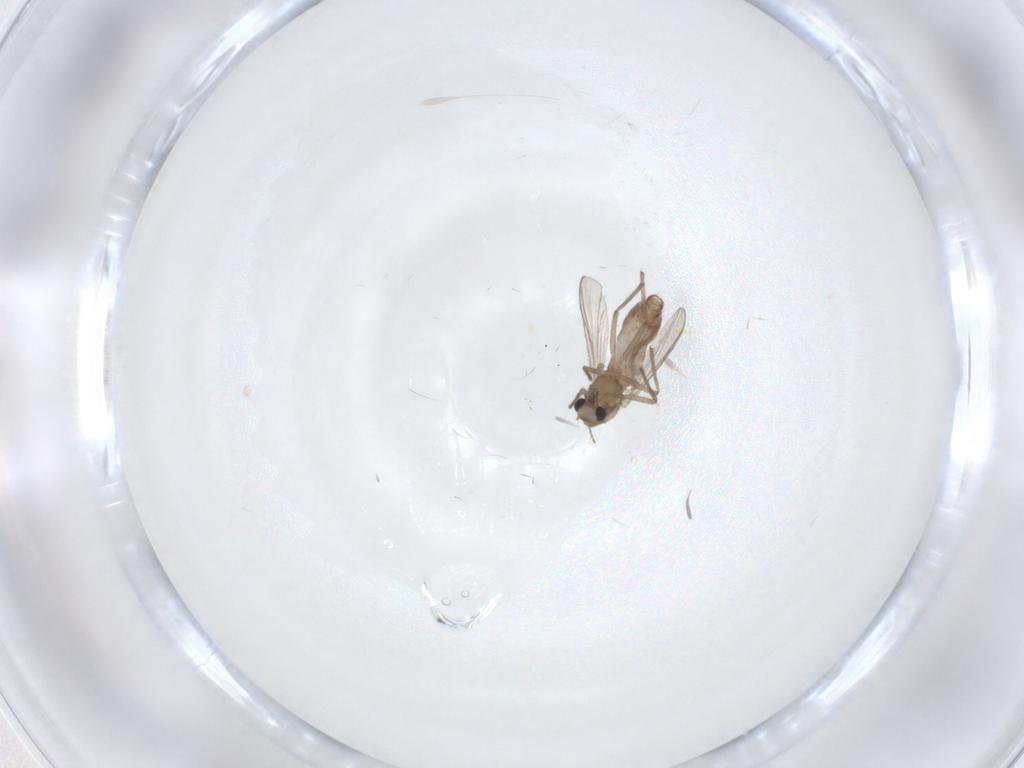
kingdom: Animalia
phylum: Arthropoda
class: Insecta
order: Diptera
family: Chironomidae
